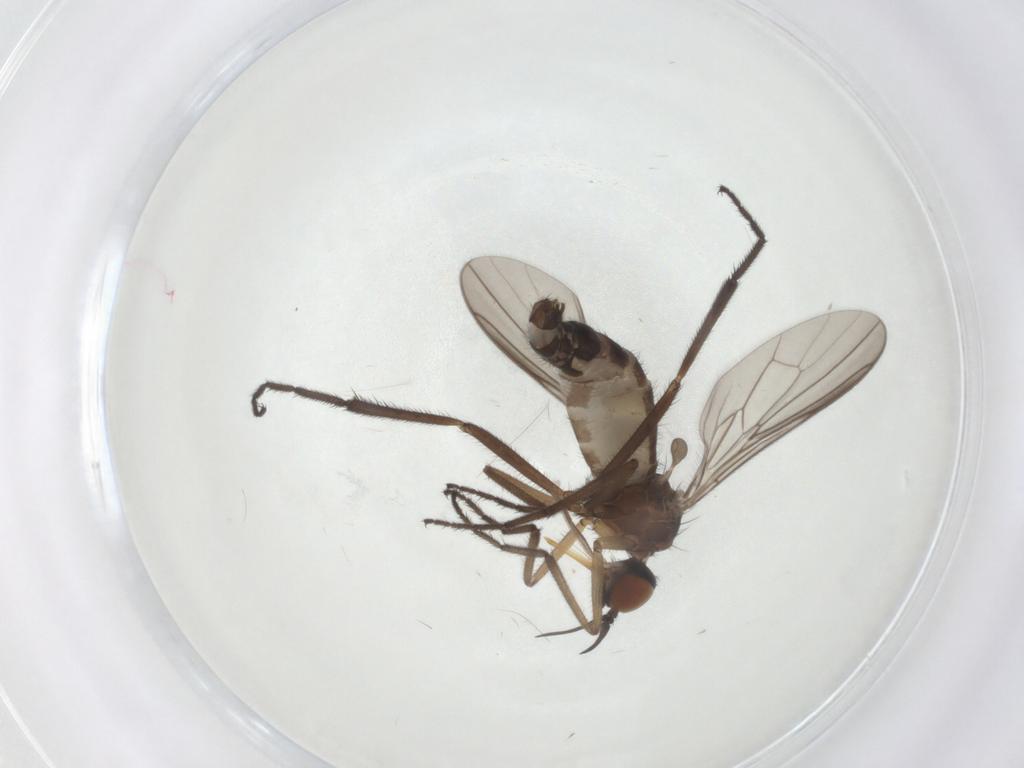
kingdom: Animalia
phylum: Arthropoda
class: Insecta
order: Diptera
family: Empididae
